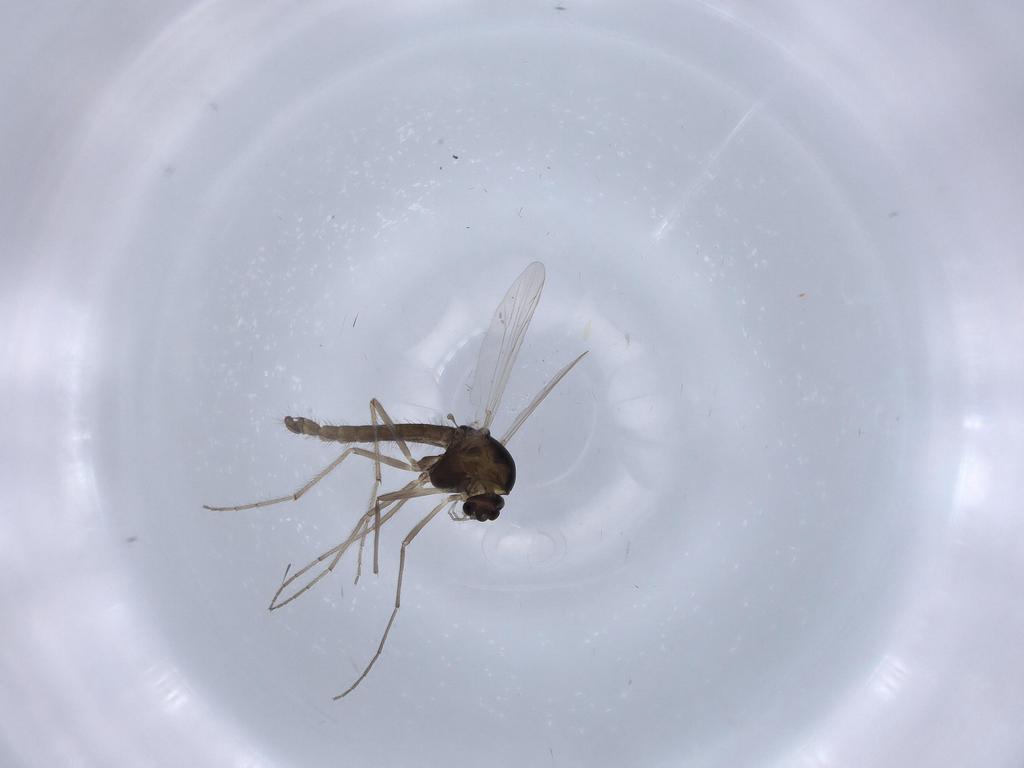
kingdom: Animalia
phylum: Arthropoda
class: Insecta
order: Diptera
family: Chironomidae
